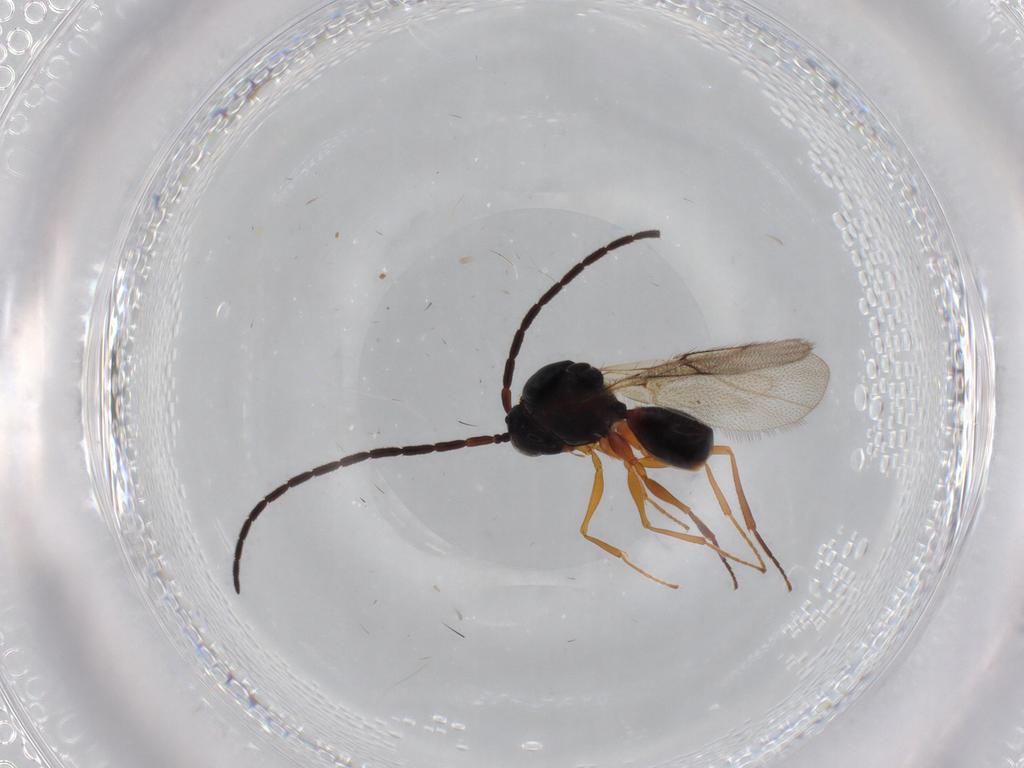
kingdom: Animalia
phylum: Arthropoda
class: Insecta
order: Hymenoptera
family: Figitidae
